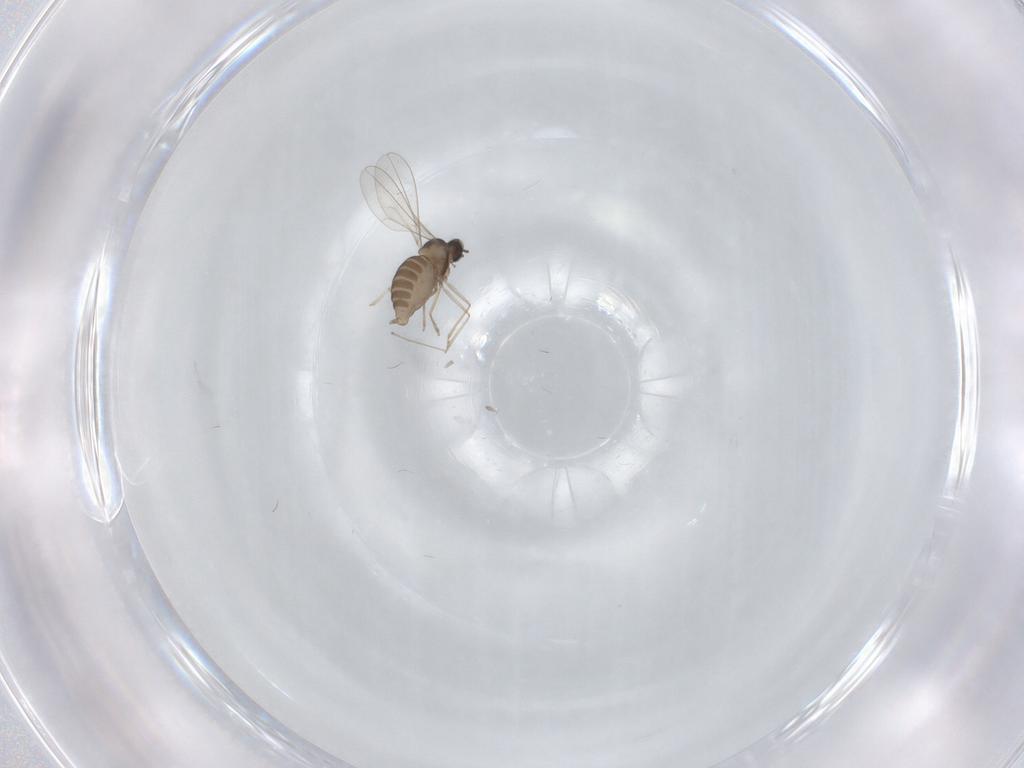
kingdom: Animalia
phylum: Arthropoda
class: Insecta
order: Diptera
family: Cecidomyiidae
